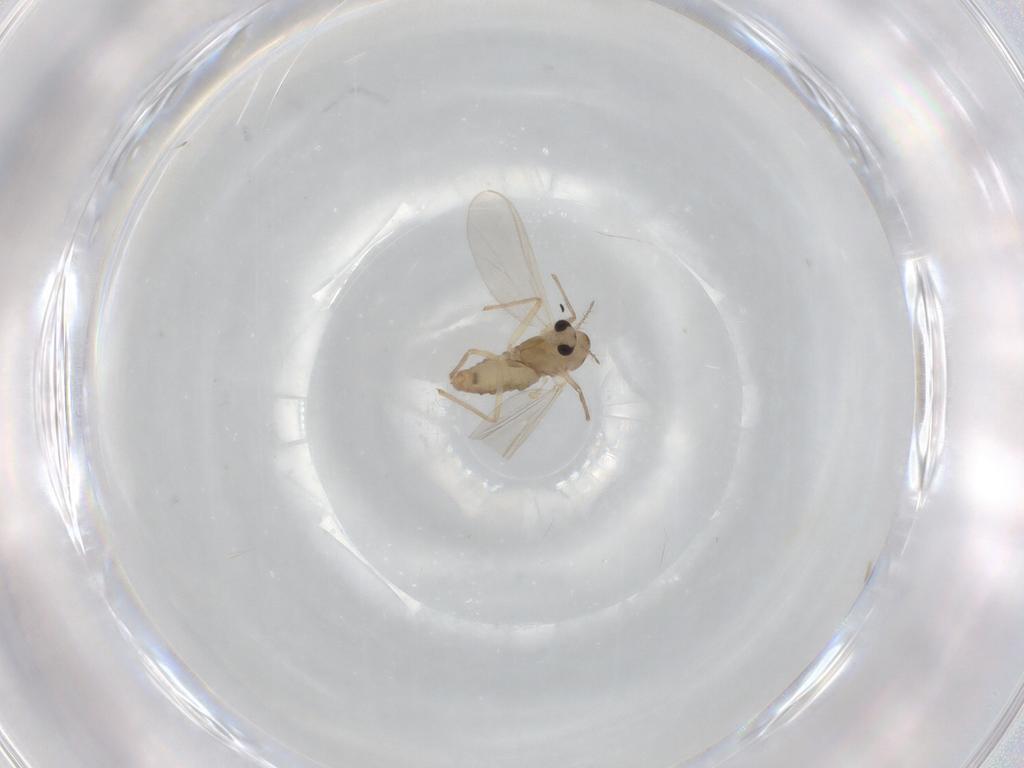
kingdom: Animalia
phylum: Arthropoda
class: Insecta
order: Diptera
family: Chironomidae
